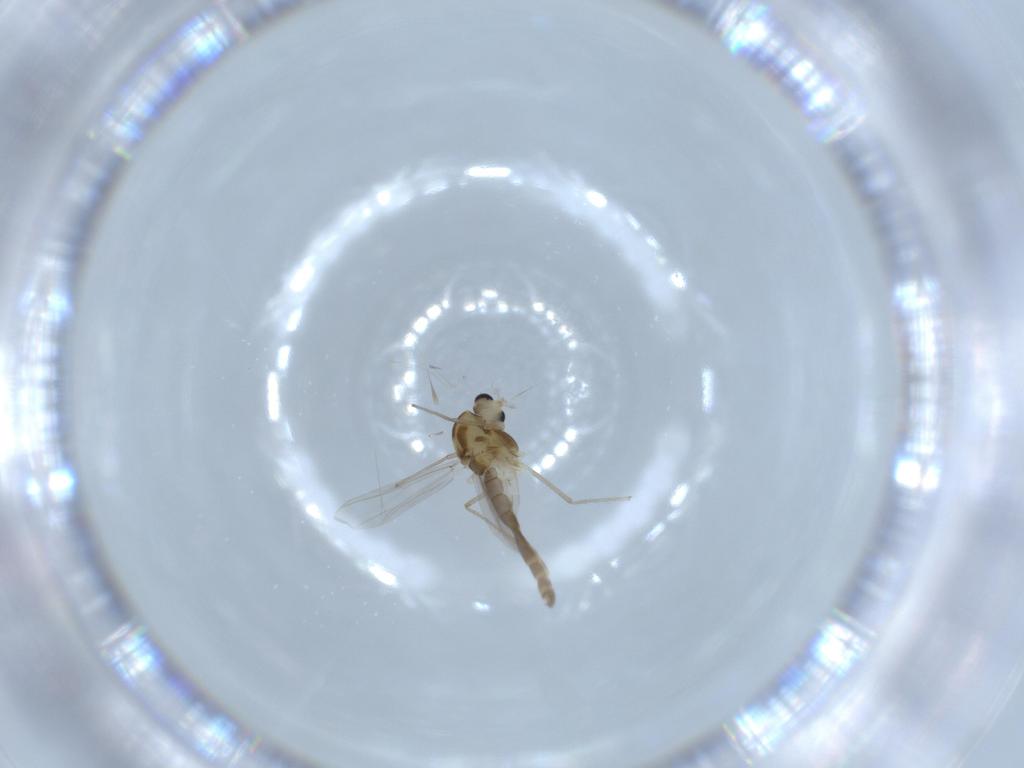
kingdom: Animalia
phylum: Arthropoda
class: Insecta
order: Diptera
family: Chironomidae
